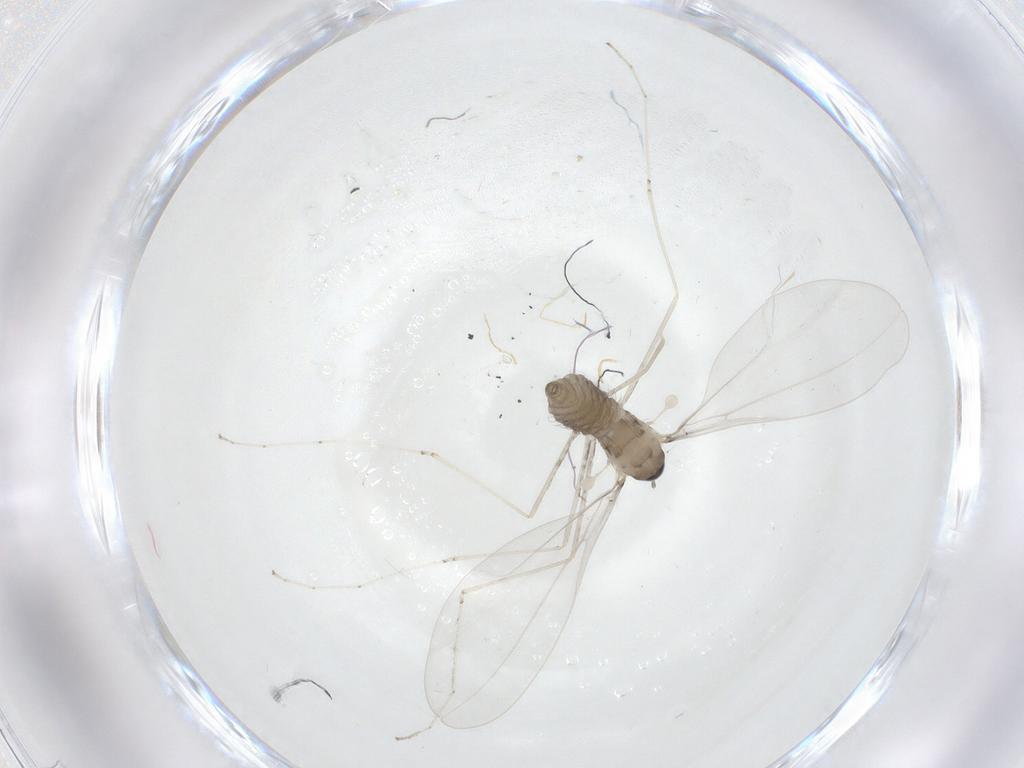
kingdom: Animalia
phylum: Arthropoda
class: Insecta
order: Diptera
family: Cecidomyiidae
